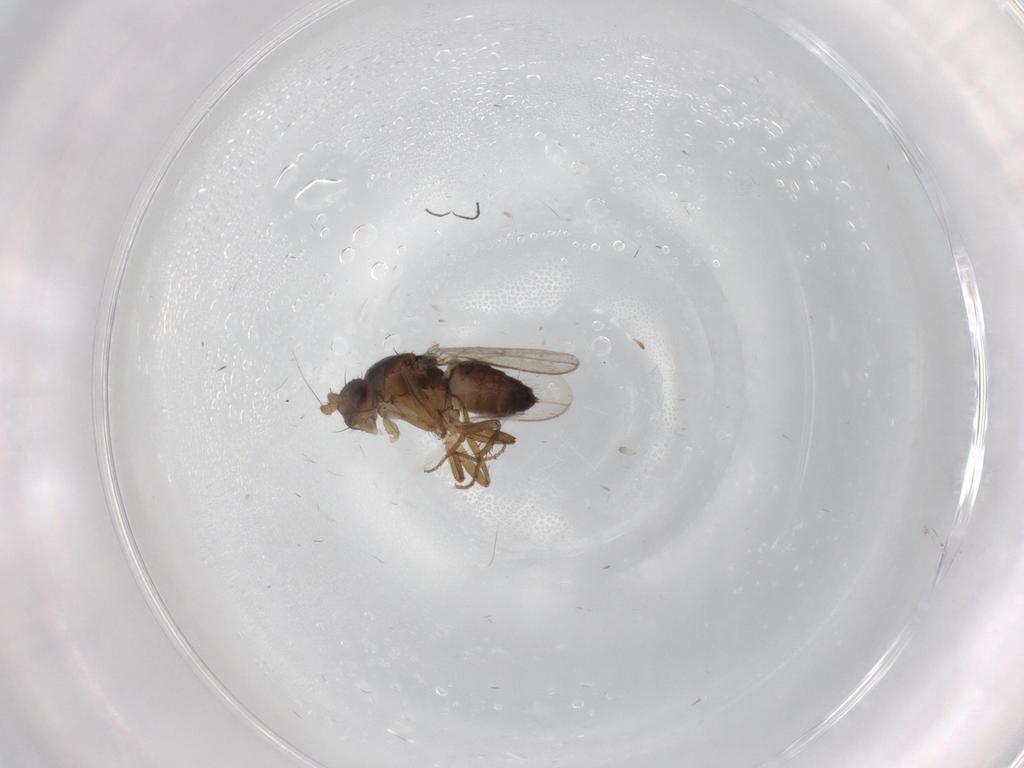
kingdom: Animalia
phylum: Arthropoda
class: Insecta
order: Diptera
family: Sphaeroceridae
